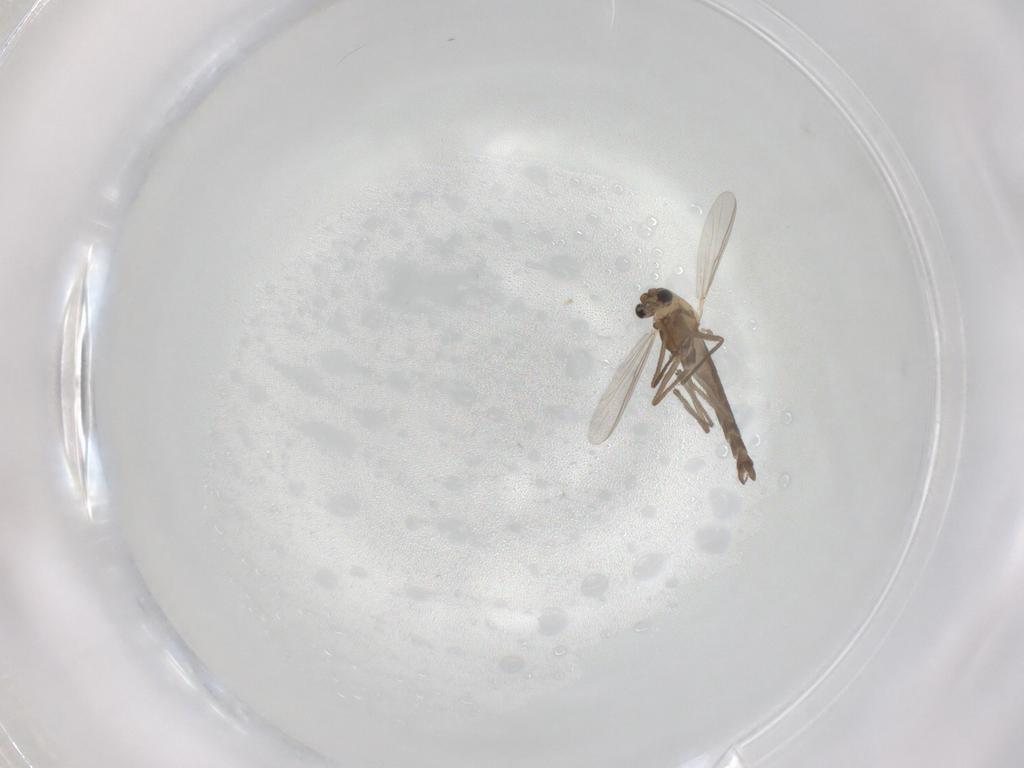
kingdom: Animalia
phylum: Arthropoda
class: Insecta
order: Diptera
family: Chironomidae
